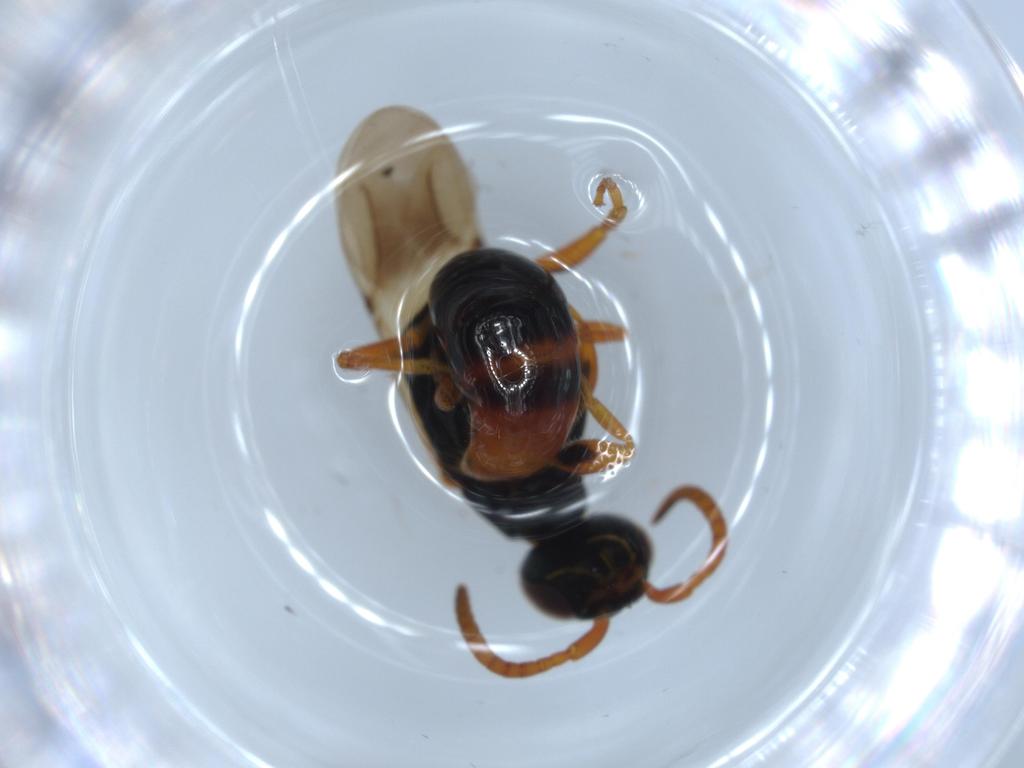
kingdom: Animalia
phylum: Arthropoda
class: Insecta
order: Hymenoptera
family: Bethylidae
